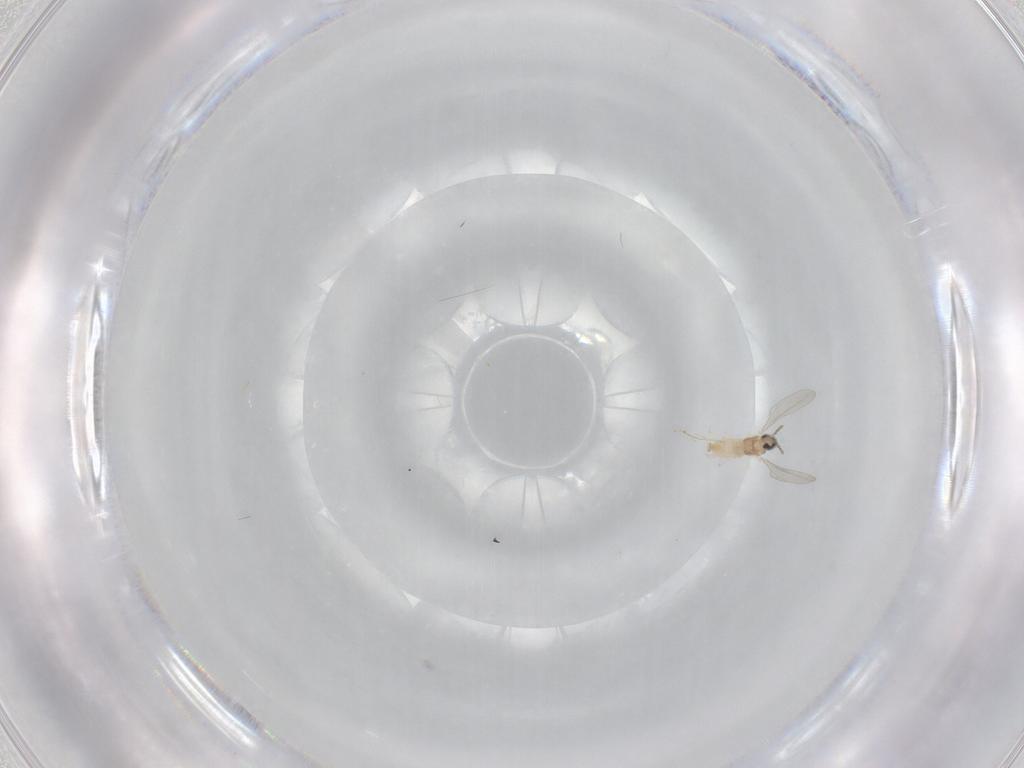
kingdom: Animalia
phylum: Arthropoda
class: Insecta
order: Diptera
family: Cecidomyiidae
